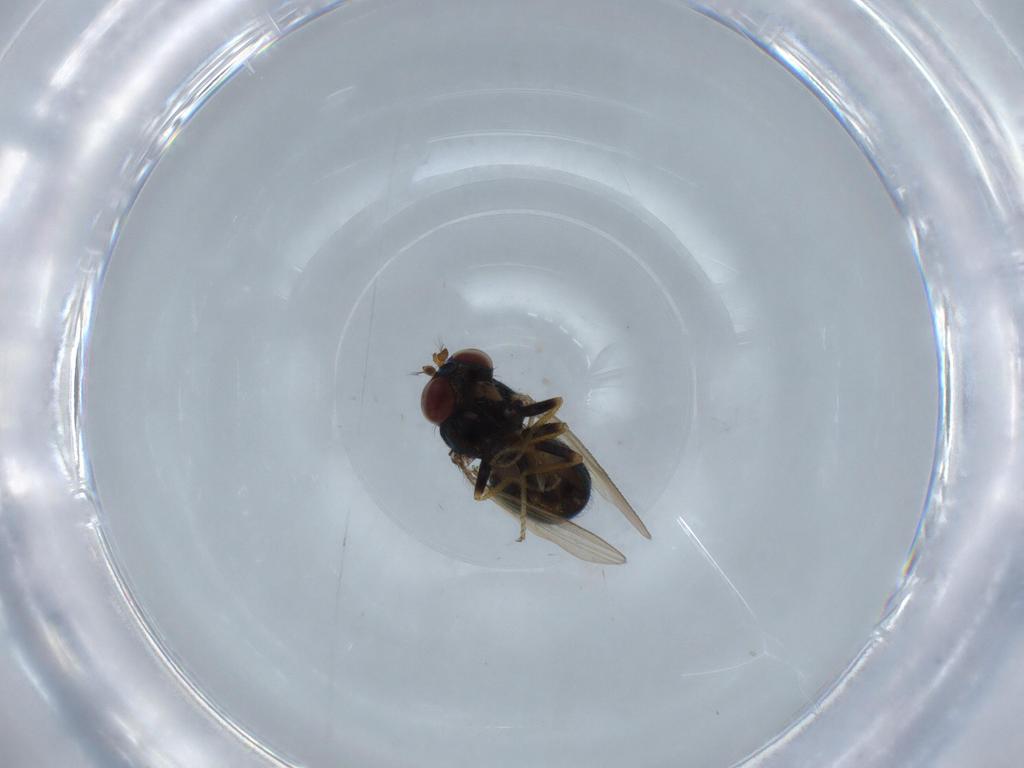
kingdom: Animalia
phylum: Arthropoda
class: Insecta
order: Diptera
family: Ephydridae
